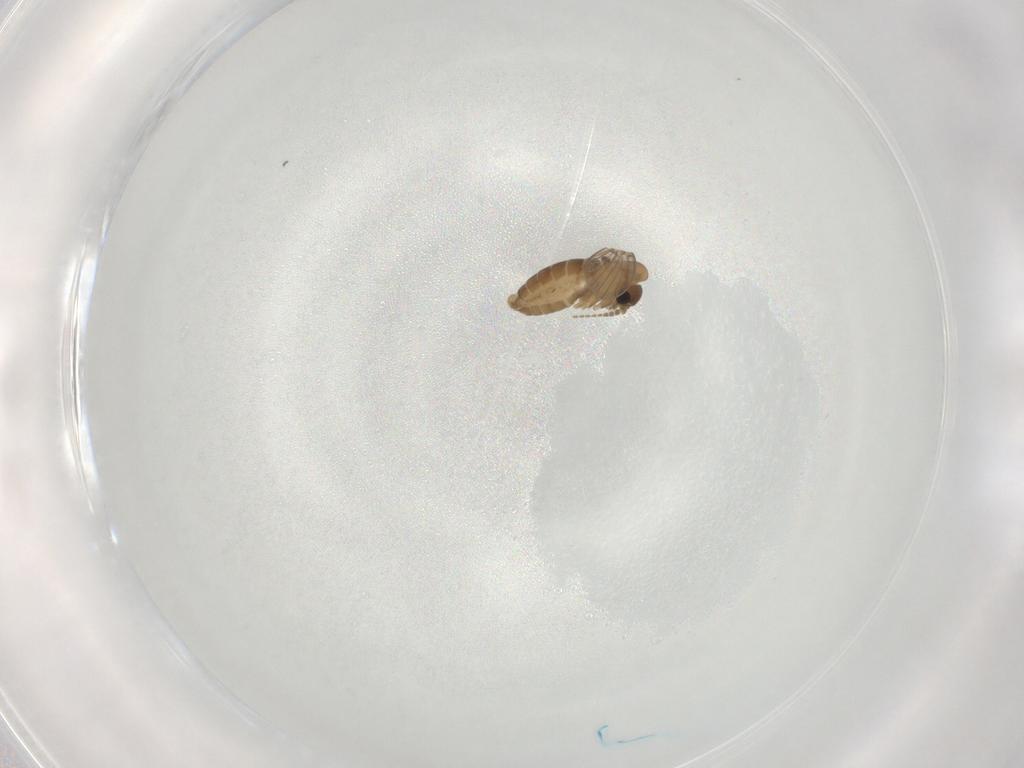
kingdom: Animalia
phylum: Arthropoda
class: Insecta
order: Diptera
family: Psychodidae
